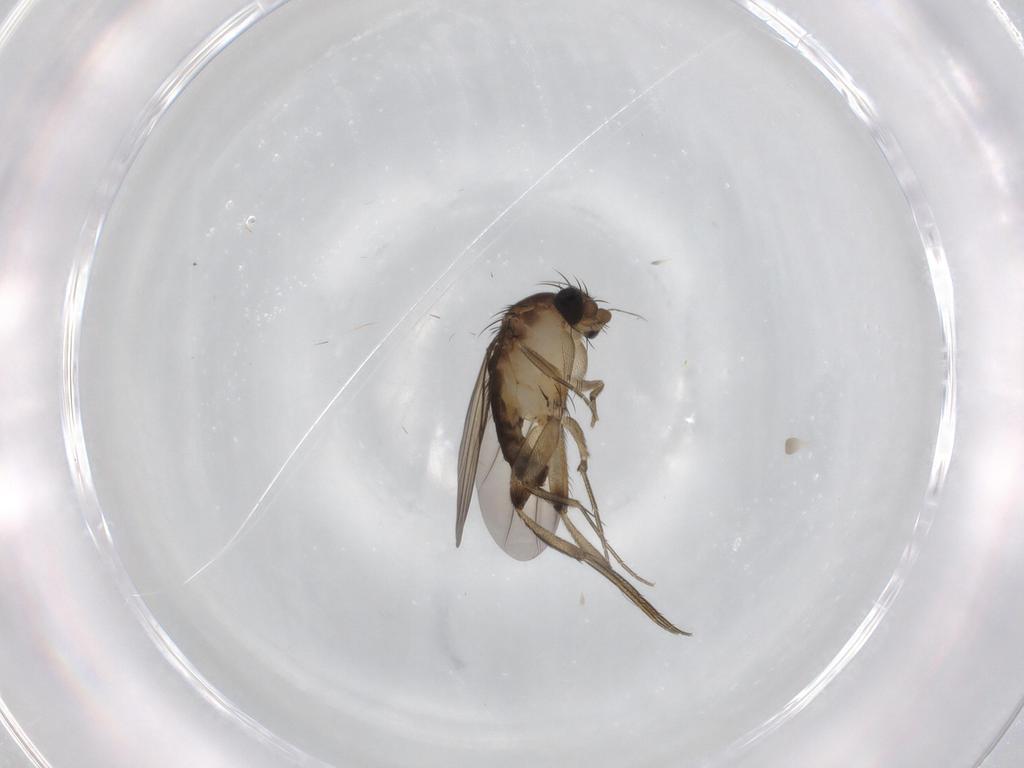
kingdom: Animalia
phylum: Arthropoda
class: Insecta
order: Diptera
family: Phoridae
